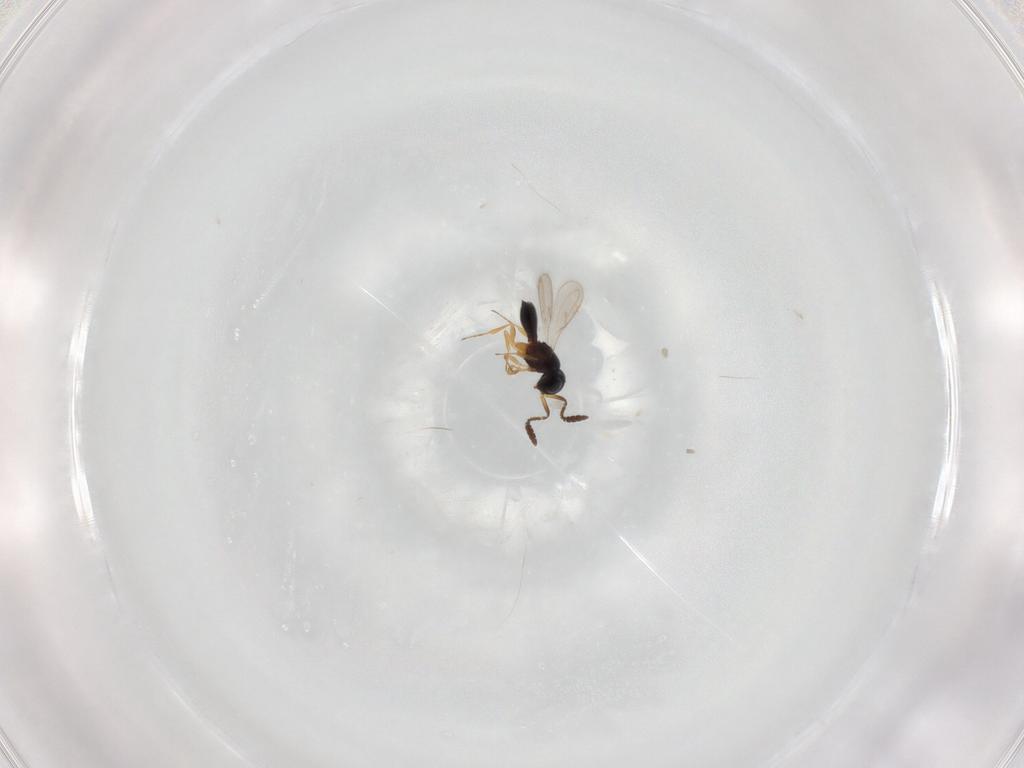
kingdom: Animalia
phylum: Arthropoda
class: Insecta
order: Hymenoptera
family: Scelionidae
